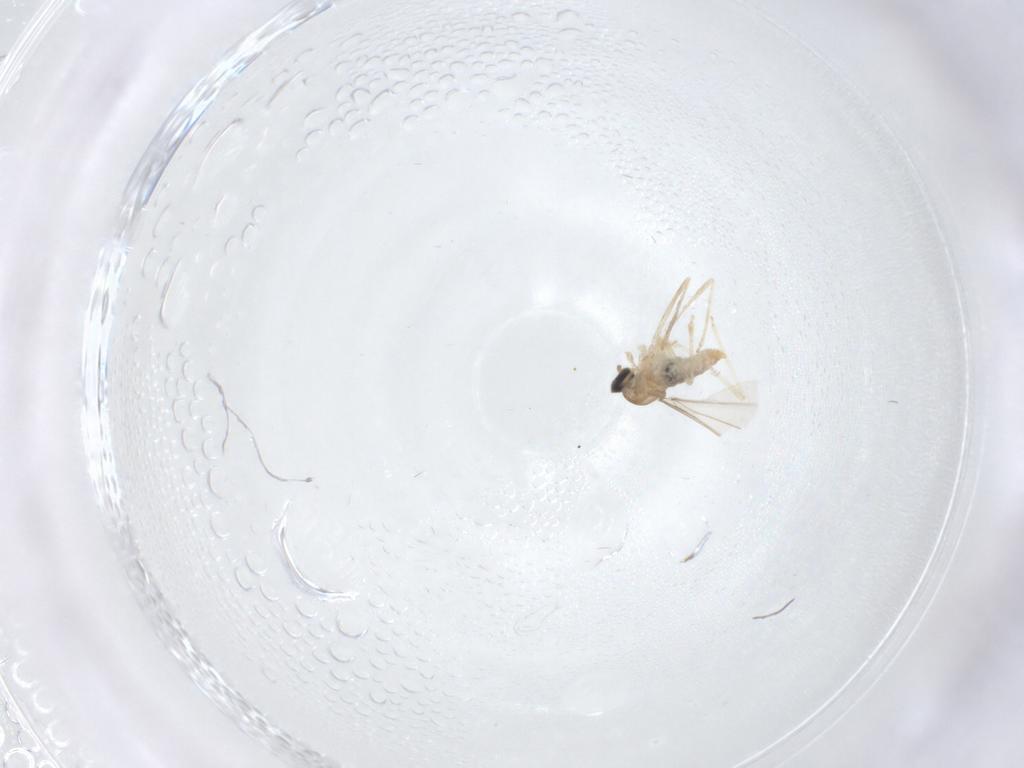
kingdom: Animalia
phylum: Arthropoda
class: Insecta
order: Diptera
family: Cecidomyiidae
